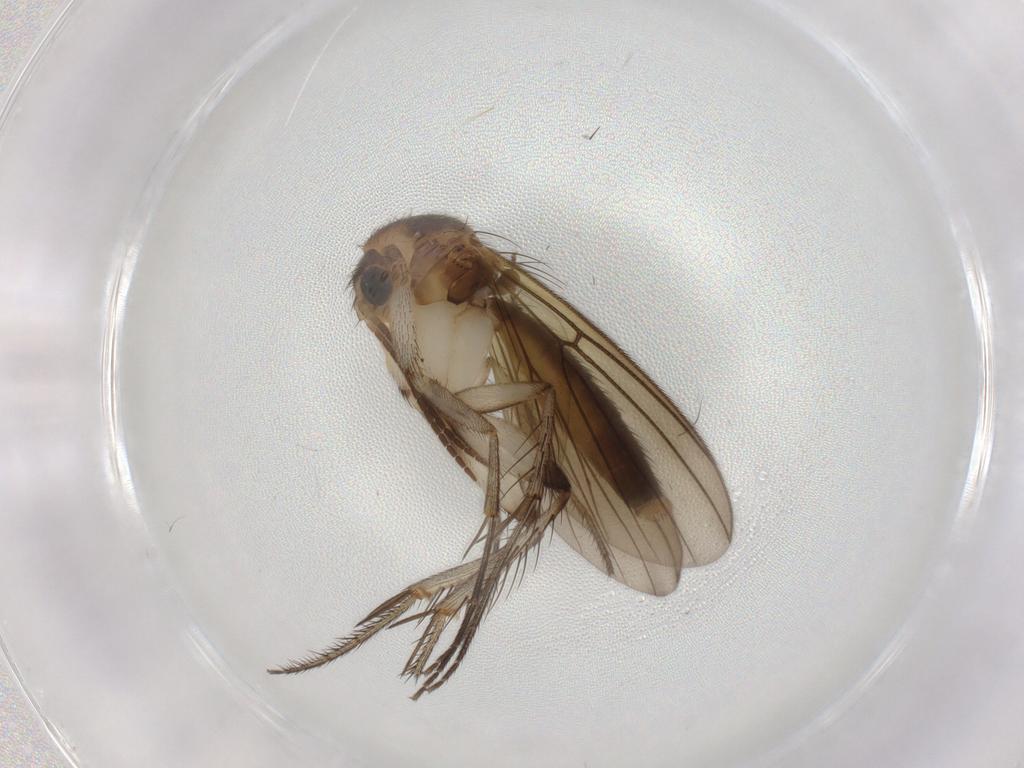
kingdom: Animalia
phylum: Arthropoda
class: Insecta
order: Diptera
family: Mycetophilidae
